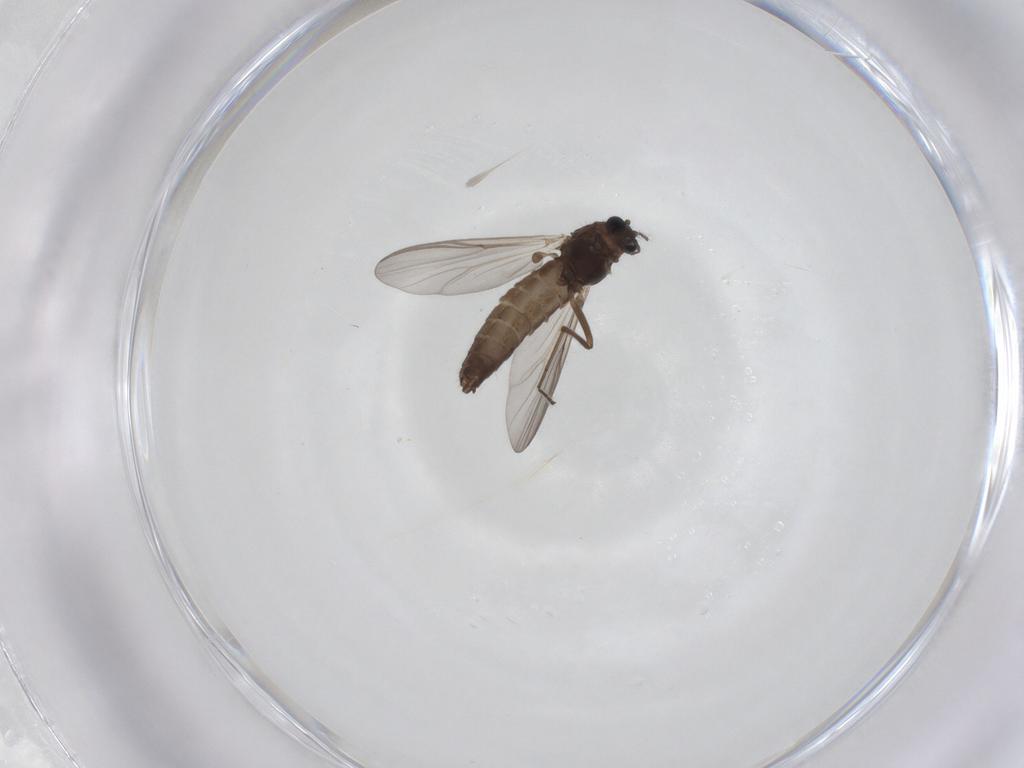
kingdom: Animalia
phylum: Arthropoda
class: Insecta
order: Diptera
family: Chironomidae
